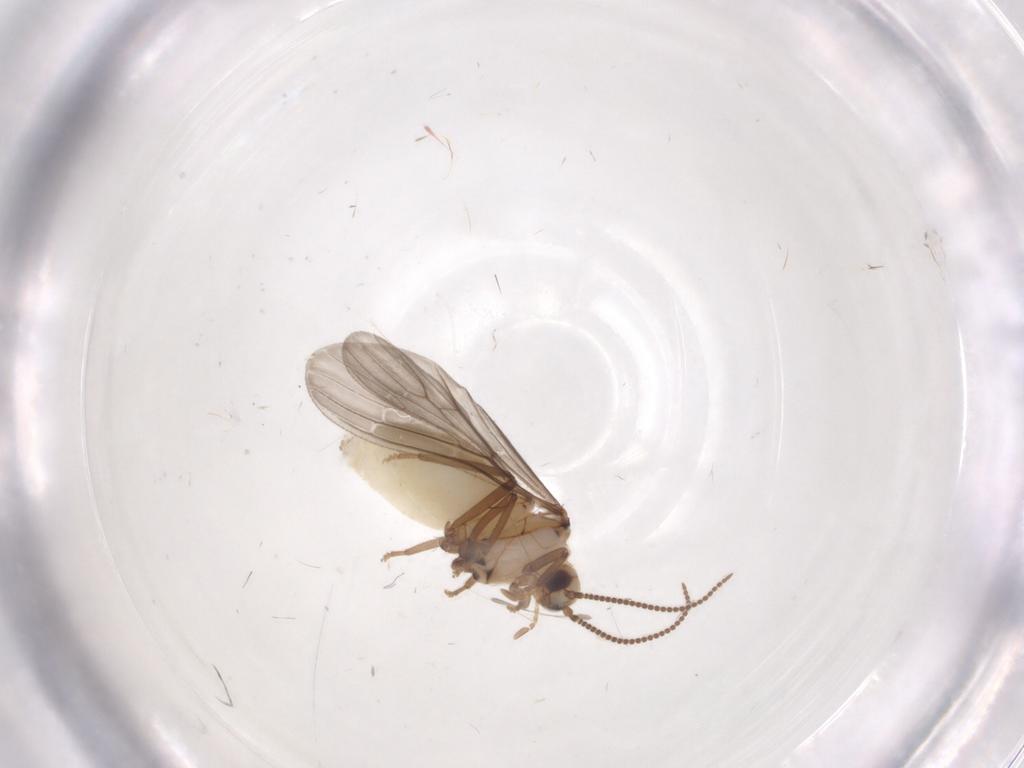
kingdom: Animalia
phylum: Arthropoda
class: Insecta
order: Neuroptera
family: Coniopterygidae
